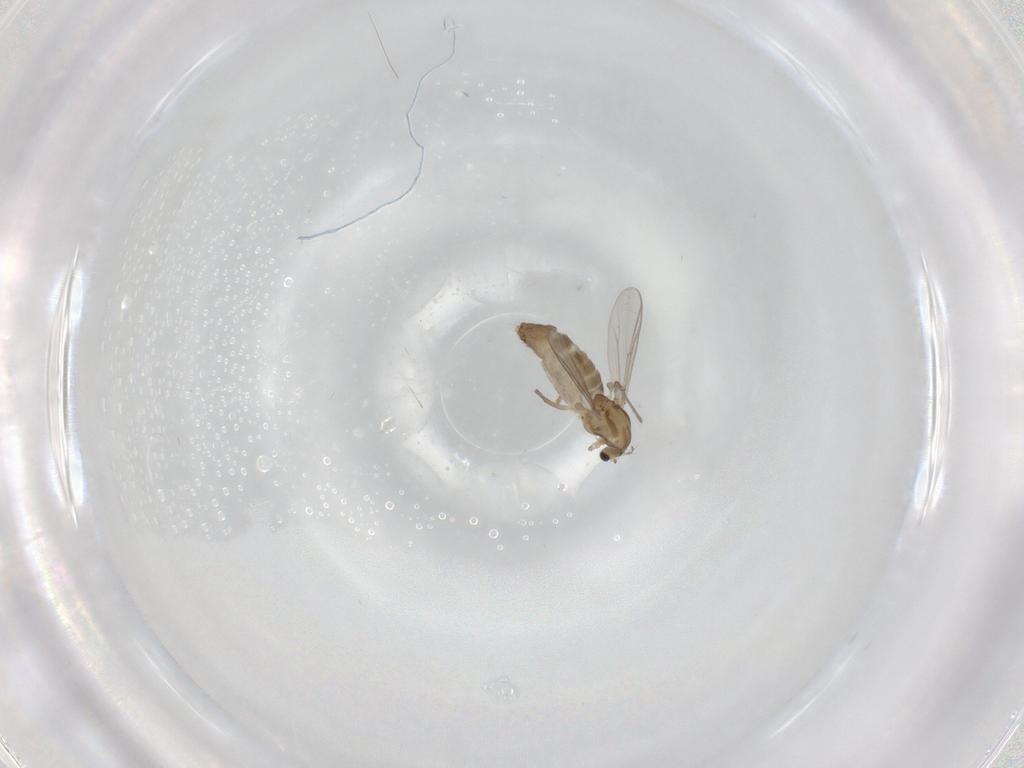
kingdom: Animalia
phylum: Arthropoda
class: Insecta
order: Diptera
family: Chironomidae
